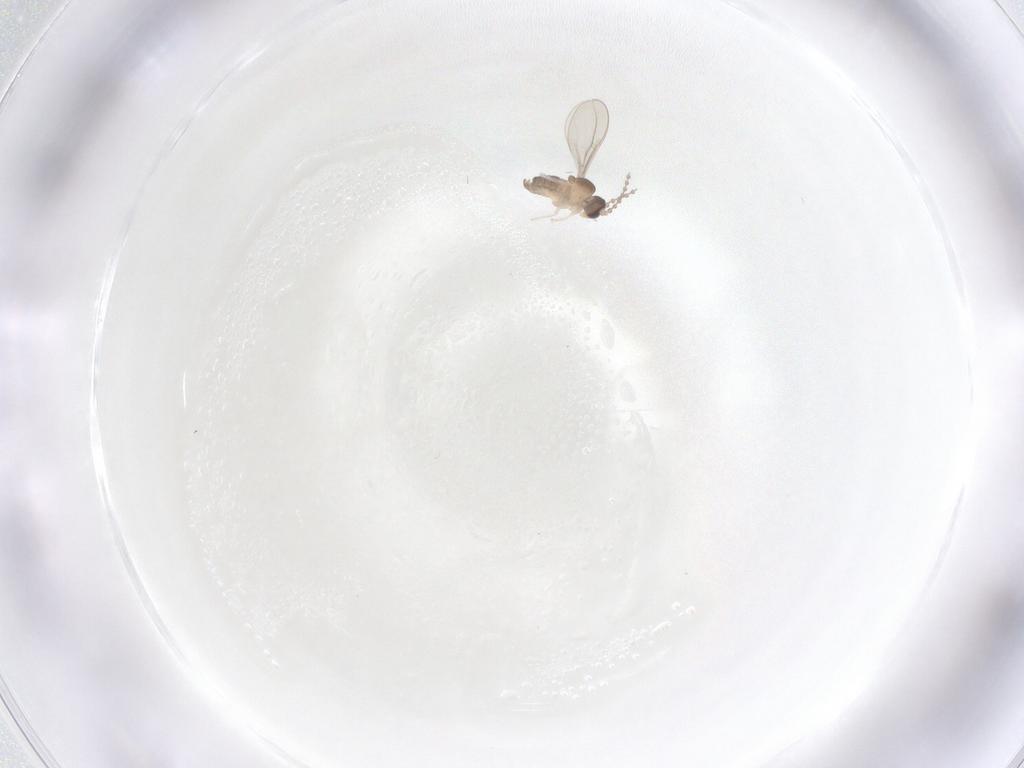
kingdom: Animalia
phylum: Arthropoda
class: Insecta
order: Diptera
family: Cecidomyiidae
